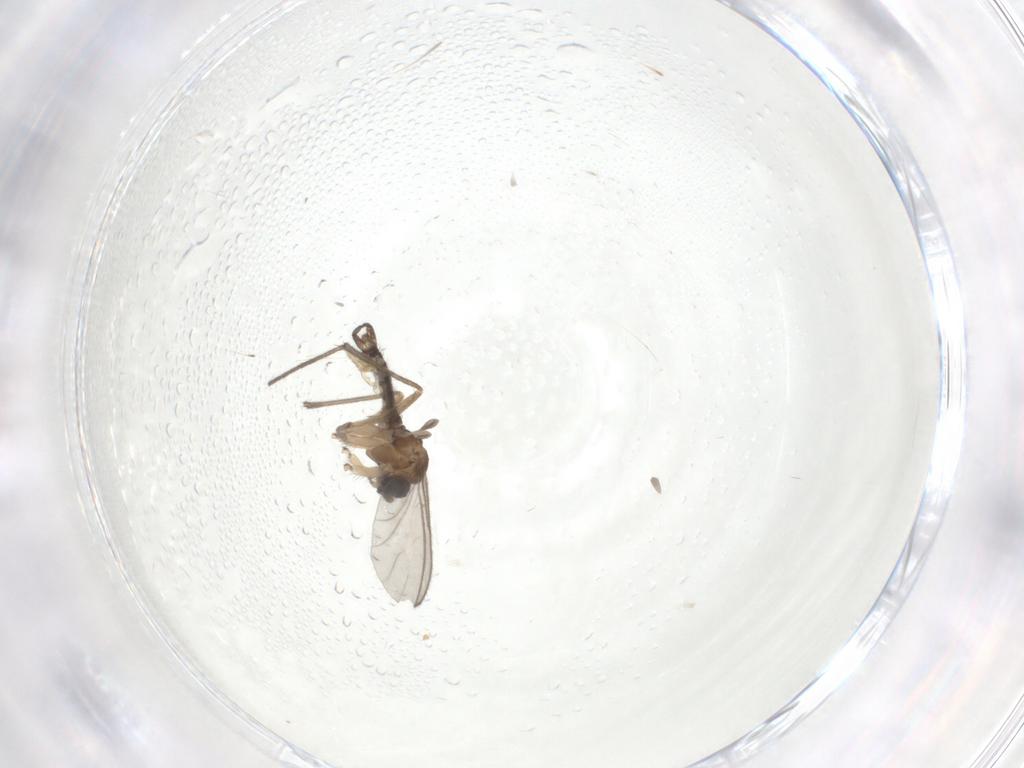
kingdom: Animalia
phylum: Arthropoda
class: Insecta
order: Diptera
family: Sciaridae
